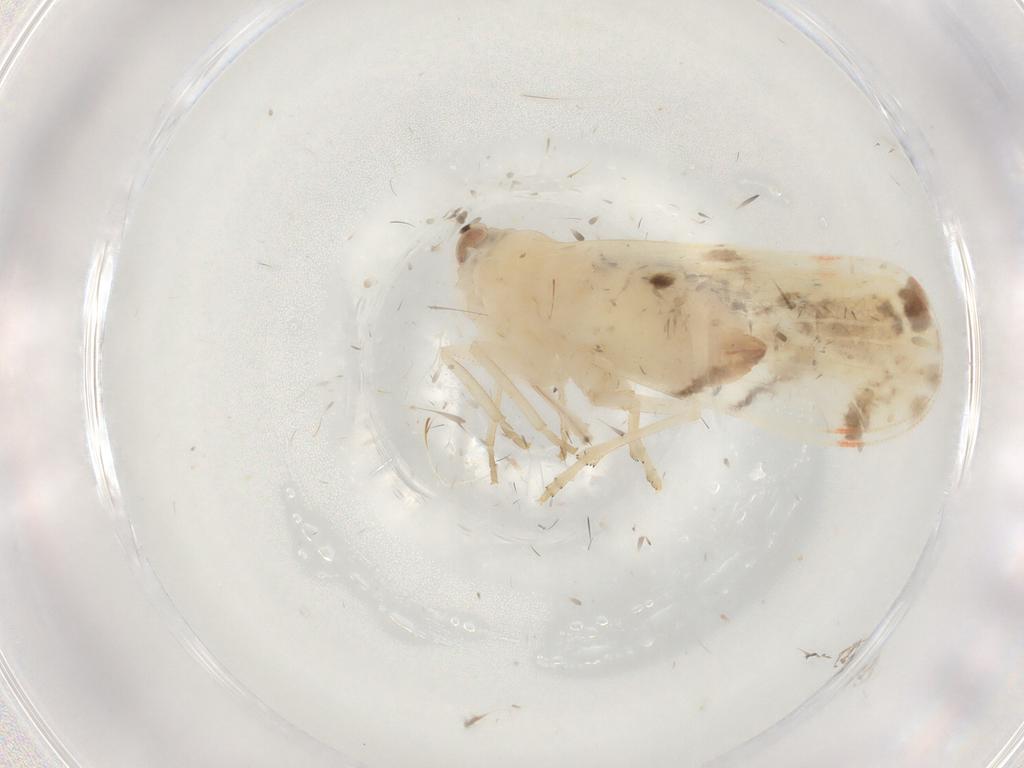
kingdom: Animalia
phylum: Arthropoda
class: Insecta
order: Hemiptera
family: Derbidae
